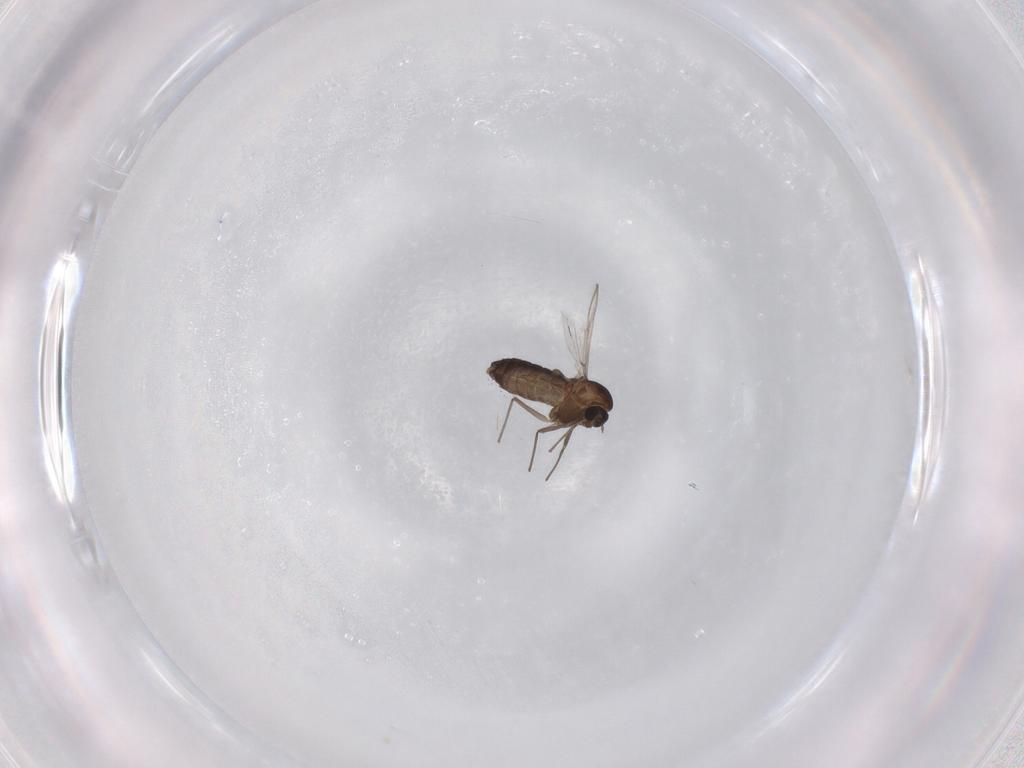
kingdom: Animalia
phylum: Arthropoda
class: Insecta
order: Diptera
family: Chironomidae
